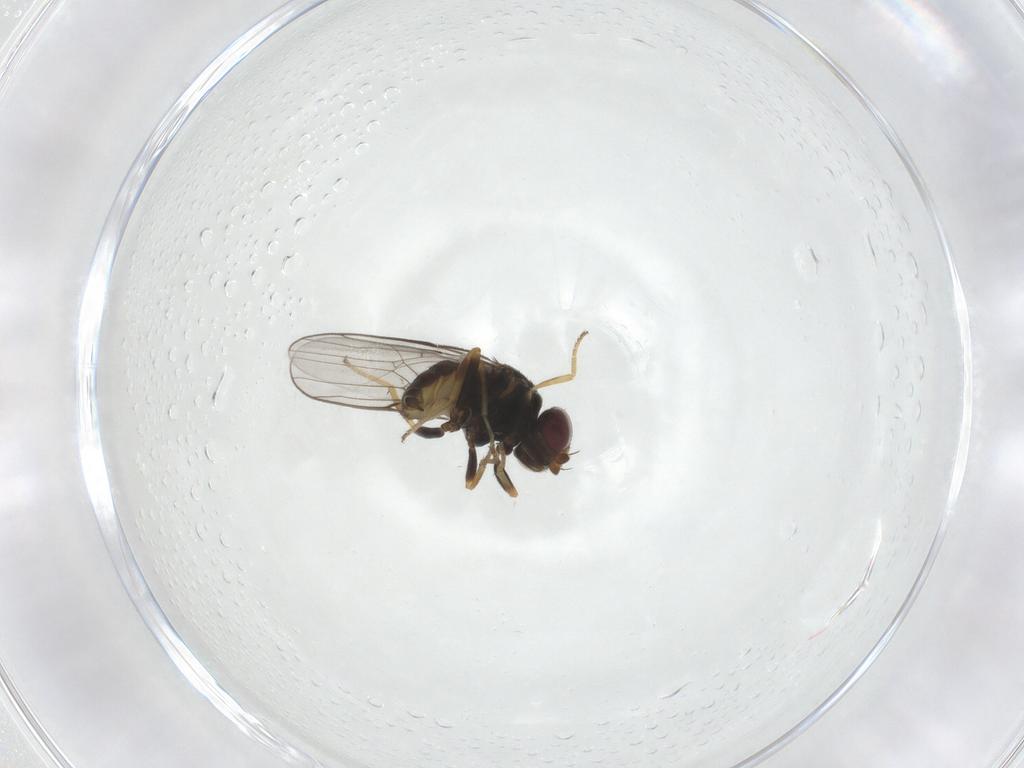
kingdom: Animalia
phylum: Arthropoda
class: Insecta
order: Diptera
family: Chloropidae
